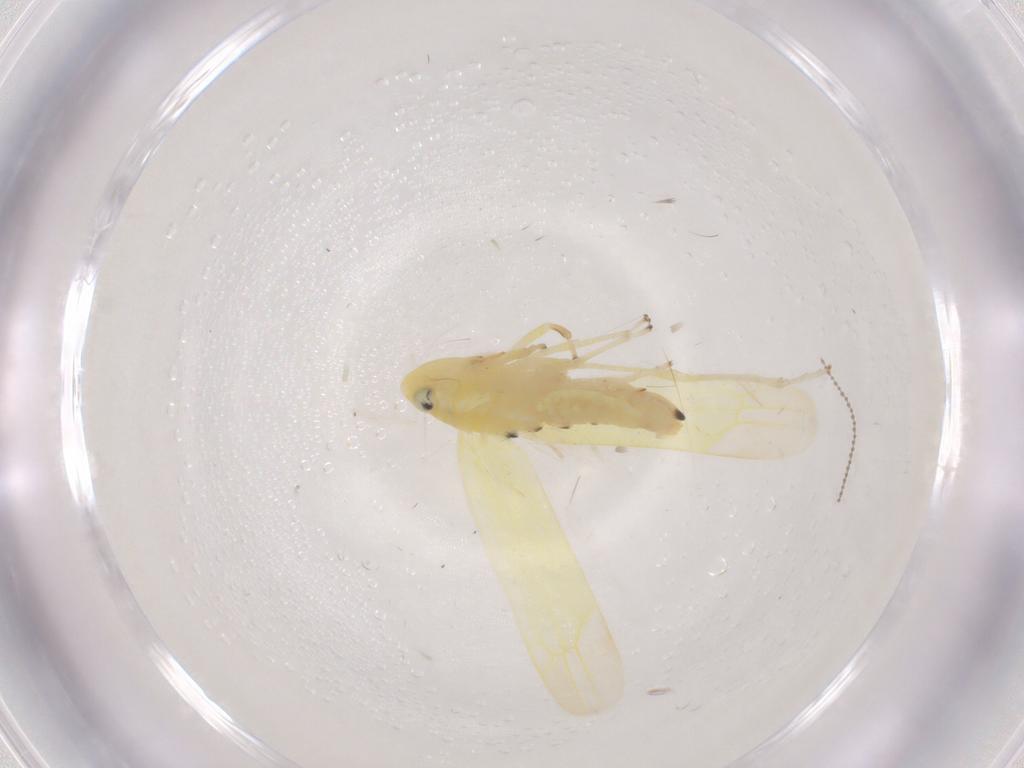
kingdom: Animalia
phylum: Arthropoda
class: Insecta
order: Hemiptera
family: Cicadellidae
